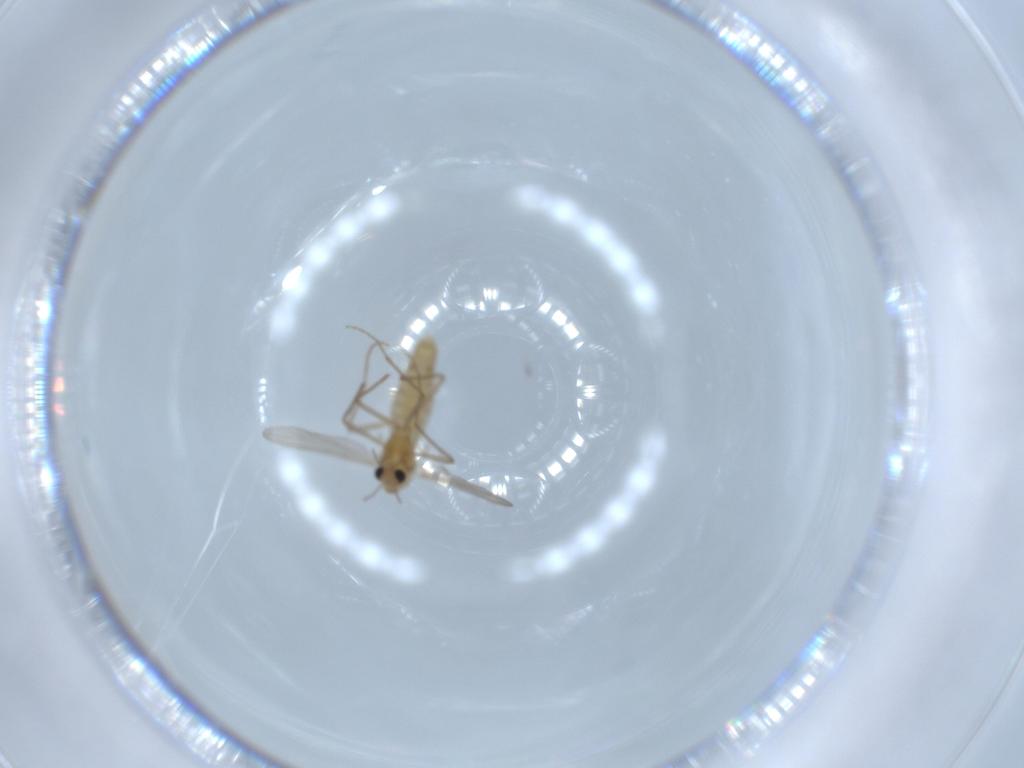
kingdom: Animalia
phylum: Arthropoda
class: Insecta
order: Diptera
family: Chironomidae
